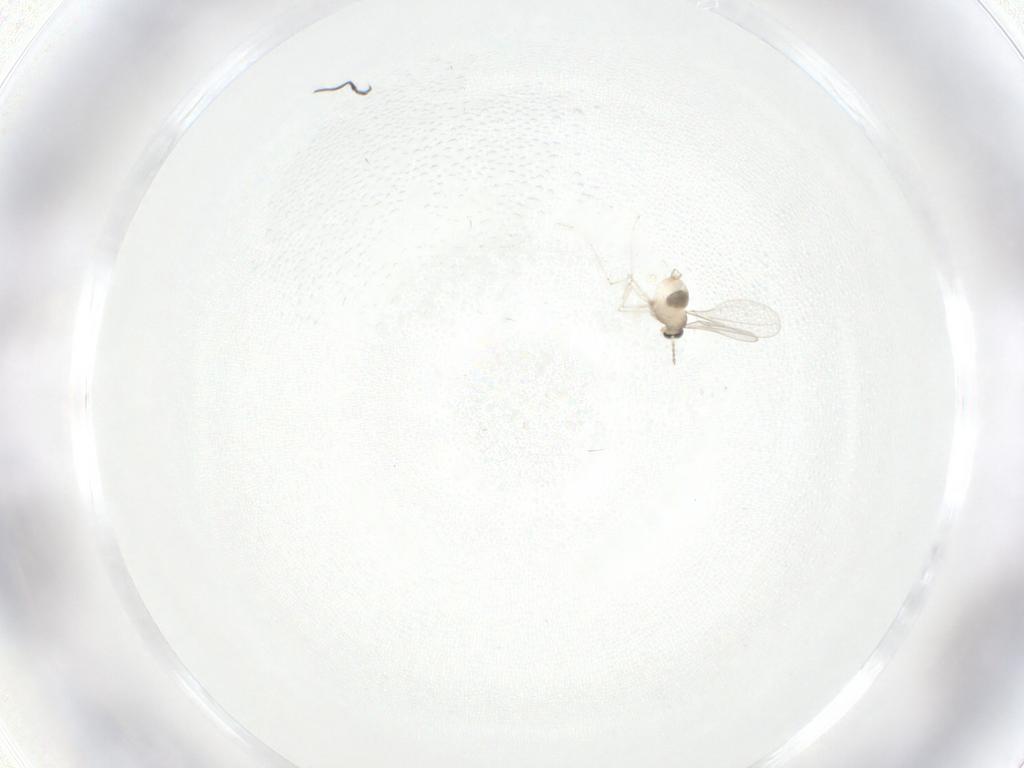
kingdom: Animalia
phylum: Arthropoda
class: Insecta
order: Diptera
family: Cecidomyiidae
